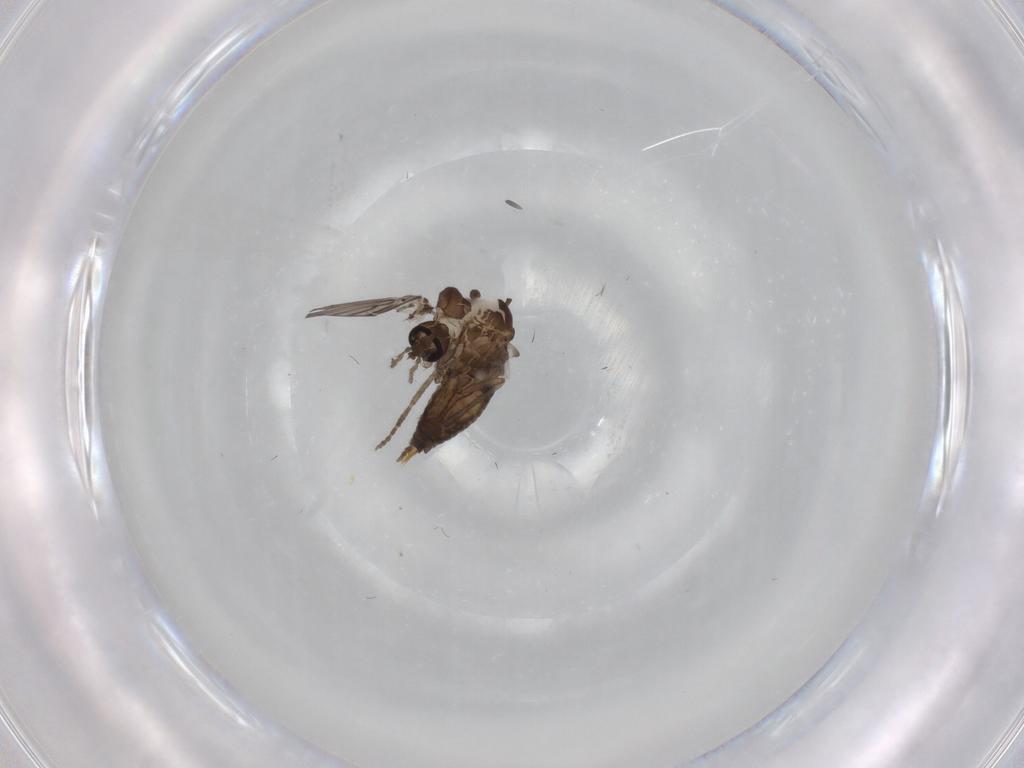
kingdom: Animalia
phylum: Arthropoda
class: Insecta
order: Diptera
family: Psychodidae
